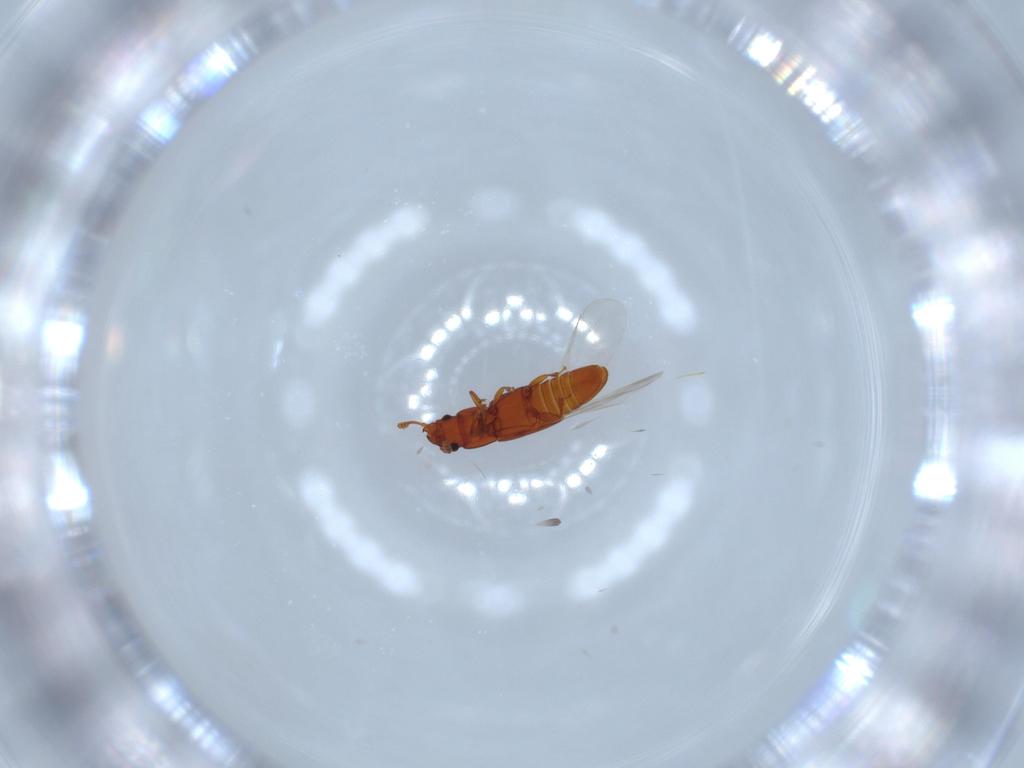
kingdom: Animalia
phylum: Arthropoda
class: Insecta
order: Coleoptera
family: Smicripidae
